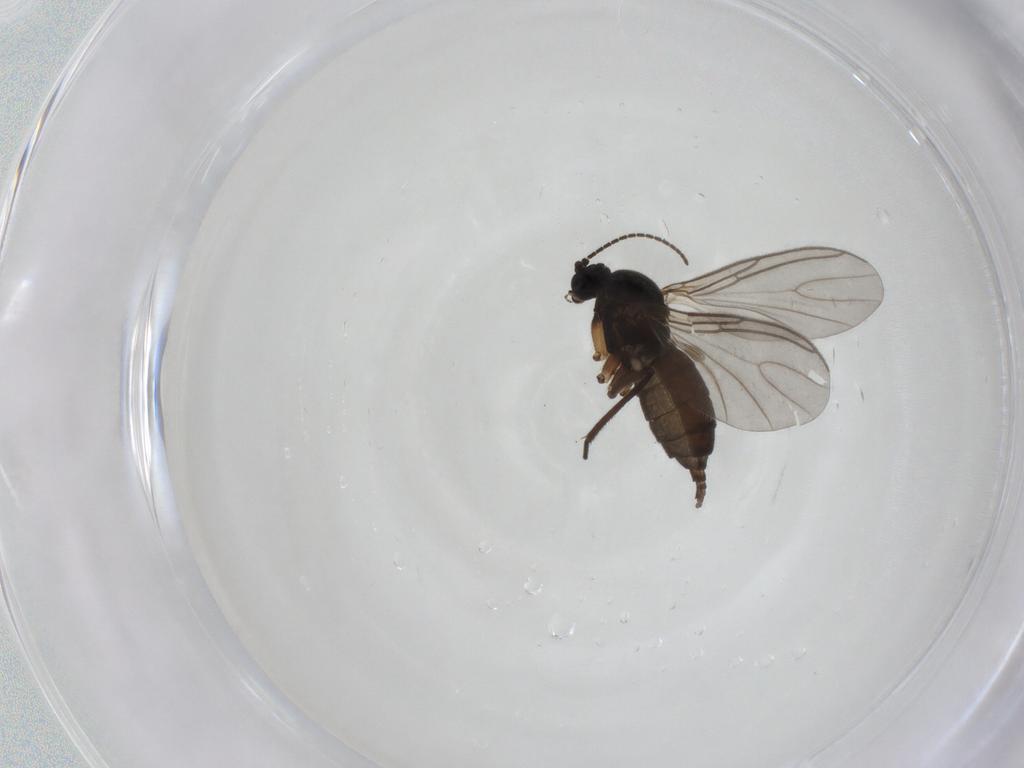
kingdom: Animalia
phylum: Arthropoda
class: Insecta
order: Diptera
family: Sciaridae
